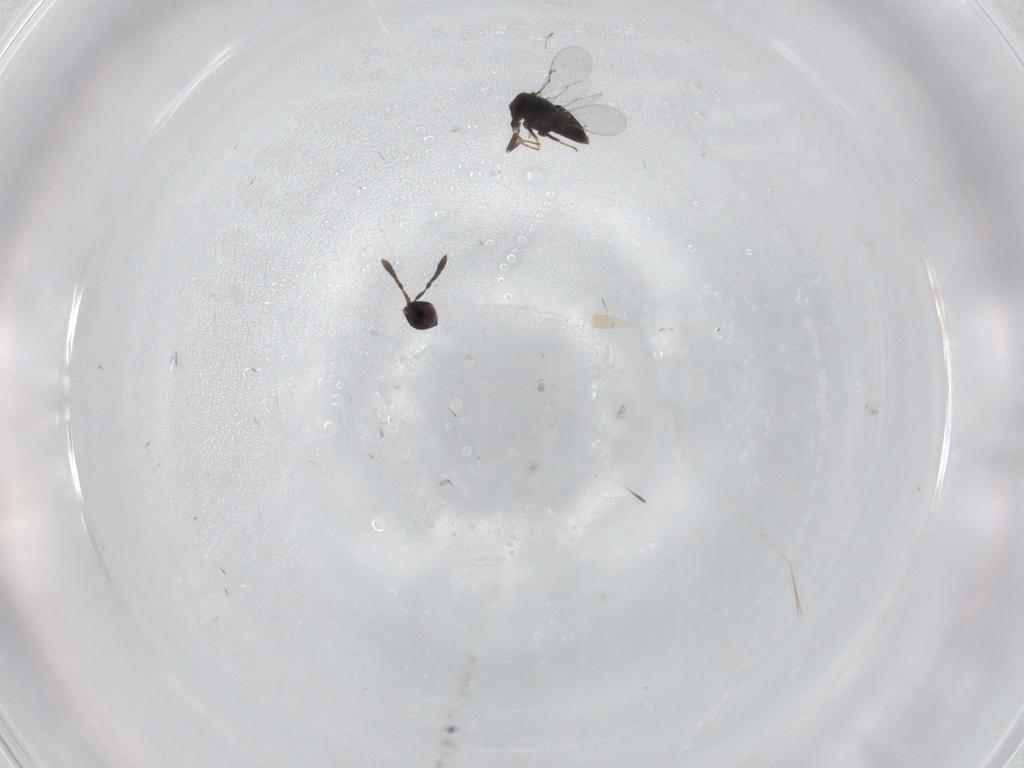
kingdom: Animalia
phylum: Arthropoda
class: Insecta
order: Hymenoptera
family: Encyrtidae
